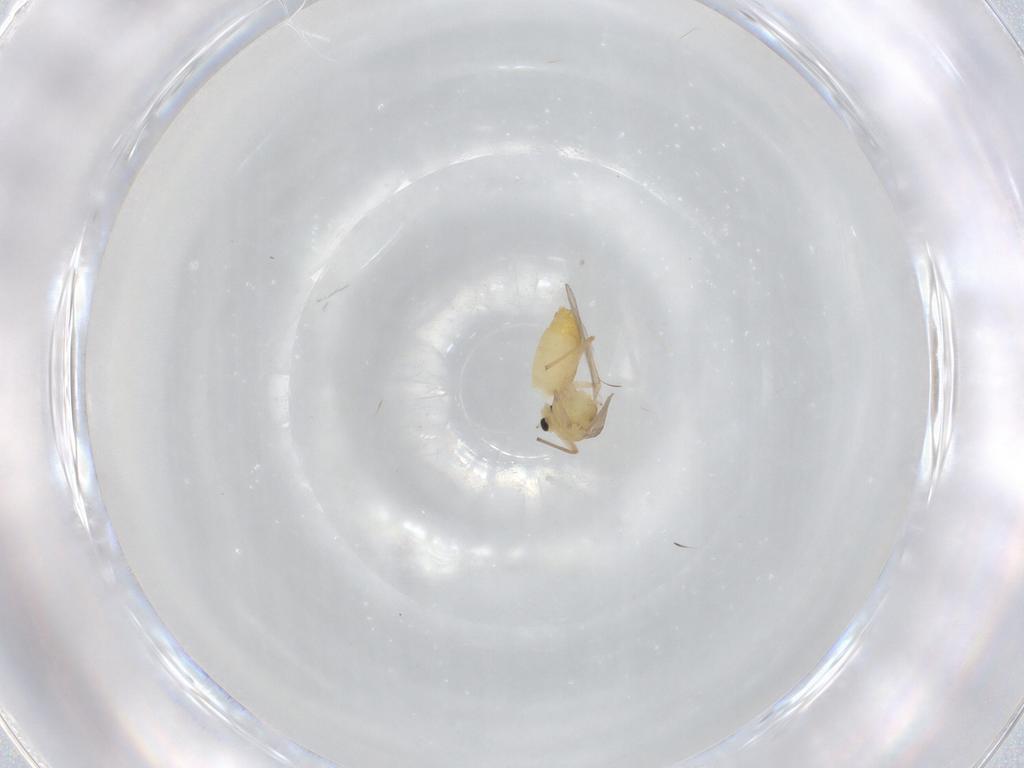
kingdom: Animalia
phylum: Arthropoda
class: Insecta
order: Diptera
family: Chironomidae
